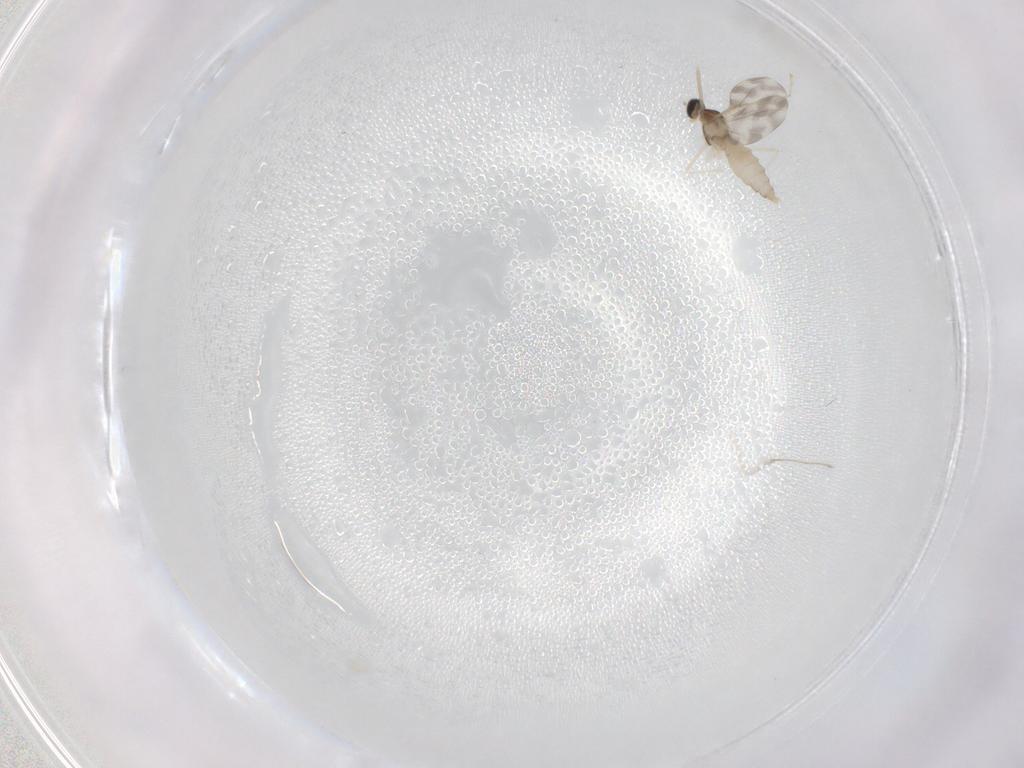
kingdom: Animalia
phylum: Arthropoda
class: Insecta
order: Diptera
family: Cecidomyiidae
